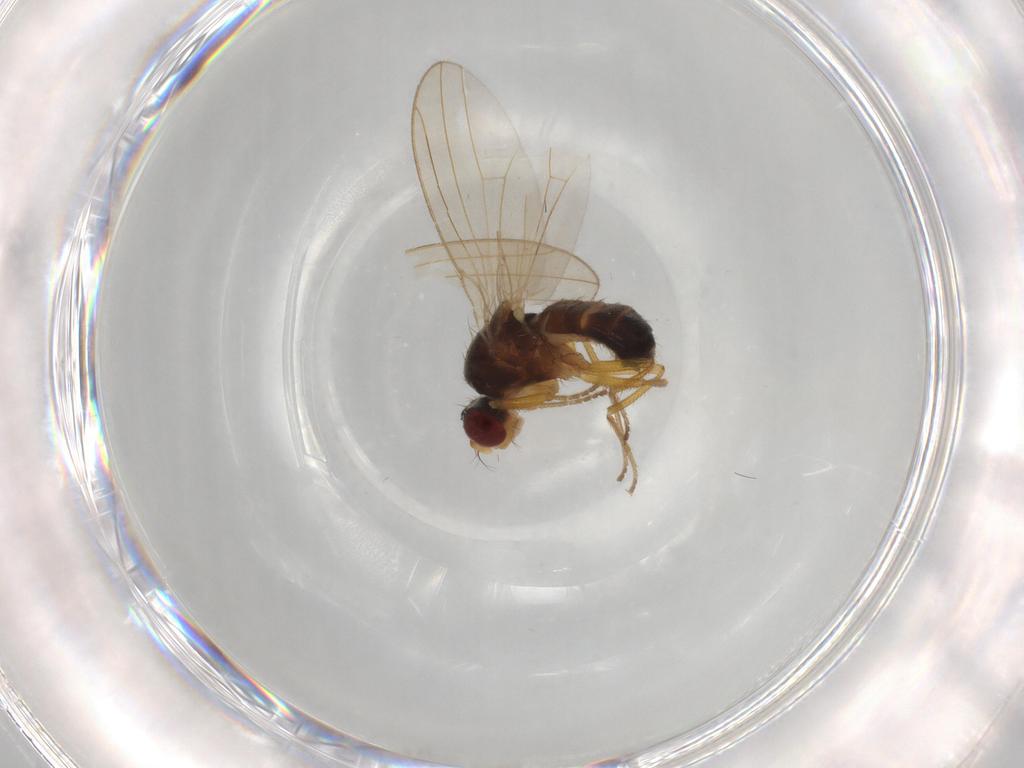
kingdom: Animalia
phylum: Arthropoda
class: Insecta
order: Diptera
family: Drosophilidae
